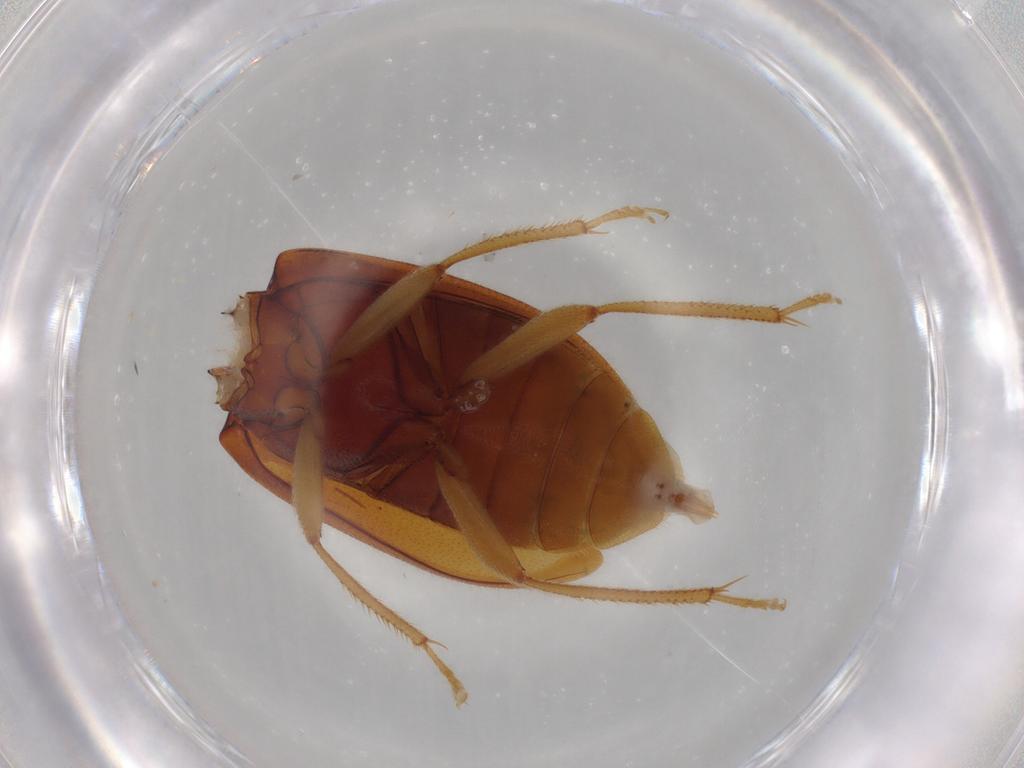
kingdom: Animalia
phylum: Arthropoda
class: Insecta
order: Coleoptera
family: Ptilodactylidae
